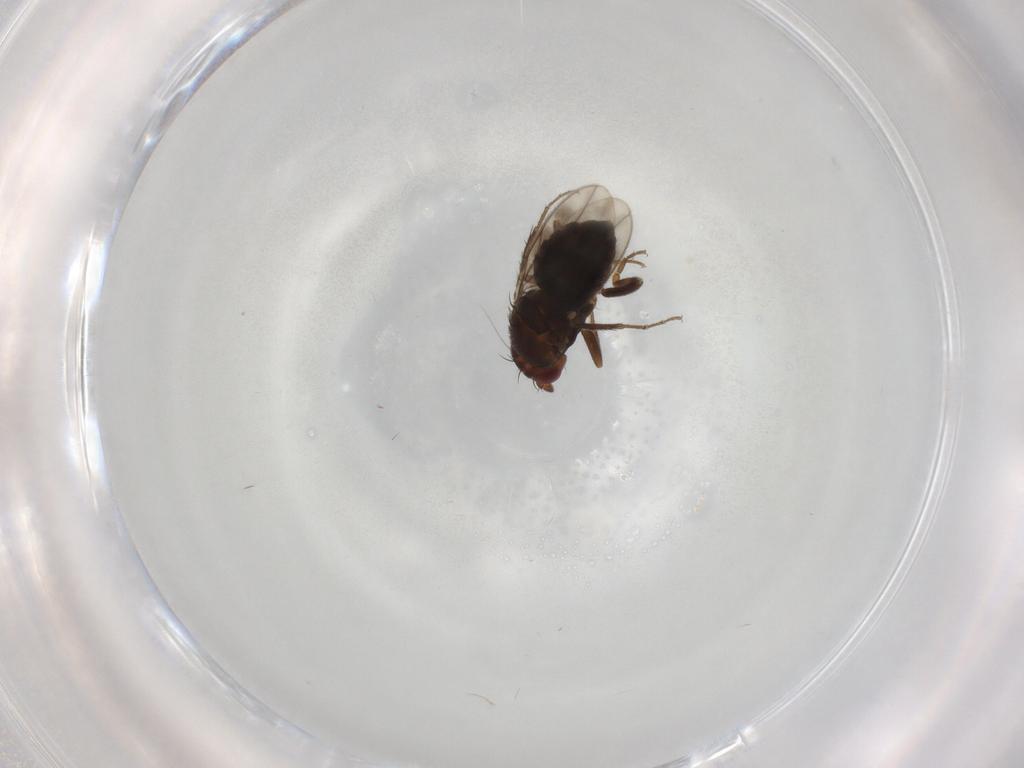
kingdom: Animalia
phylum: Arthropoda
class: Insecta
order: Diptera
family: Sphaeroceridae
